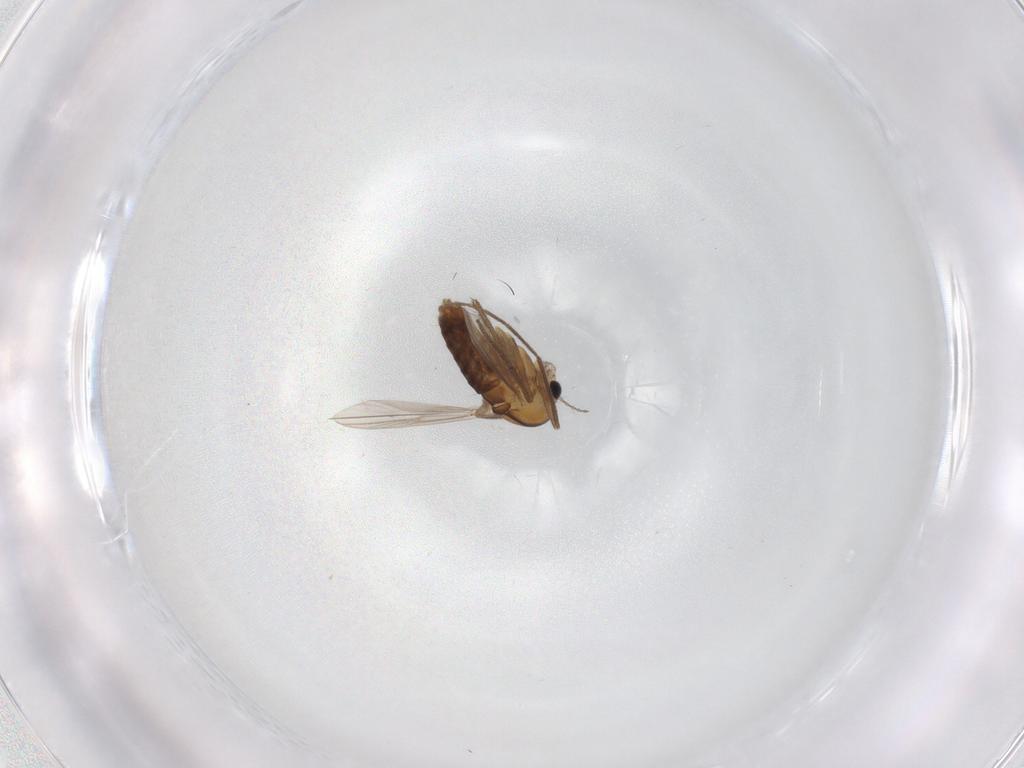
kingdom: Animalia
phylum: Arthropoda
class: Insecta
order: Diptera
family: Chironomidae
